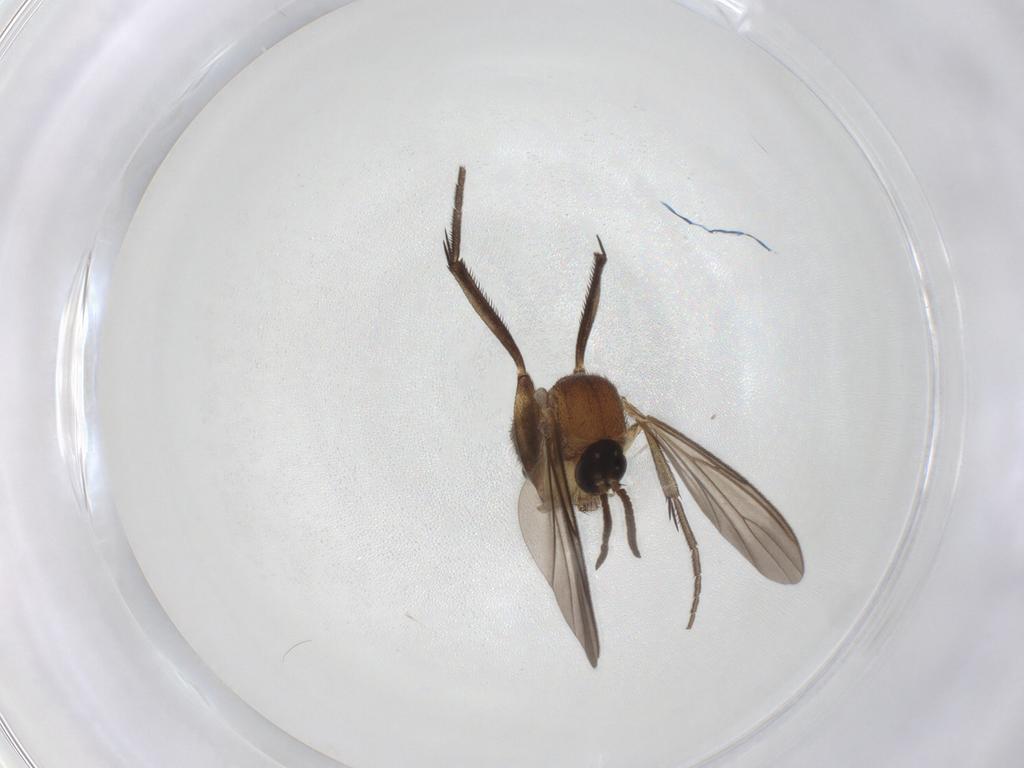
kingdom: Animalia
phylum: Arthropoda
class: Insecta
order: Diptera
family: Mycetophilidae
